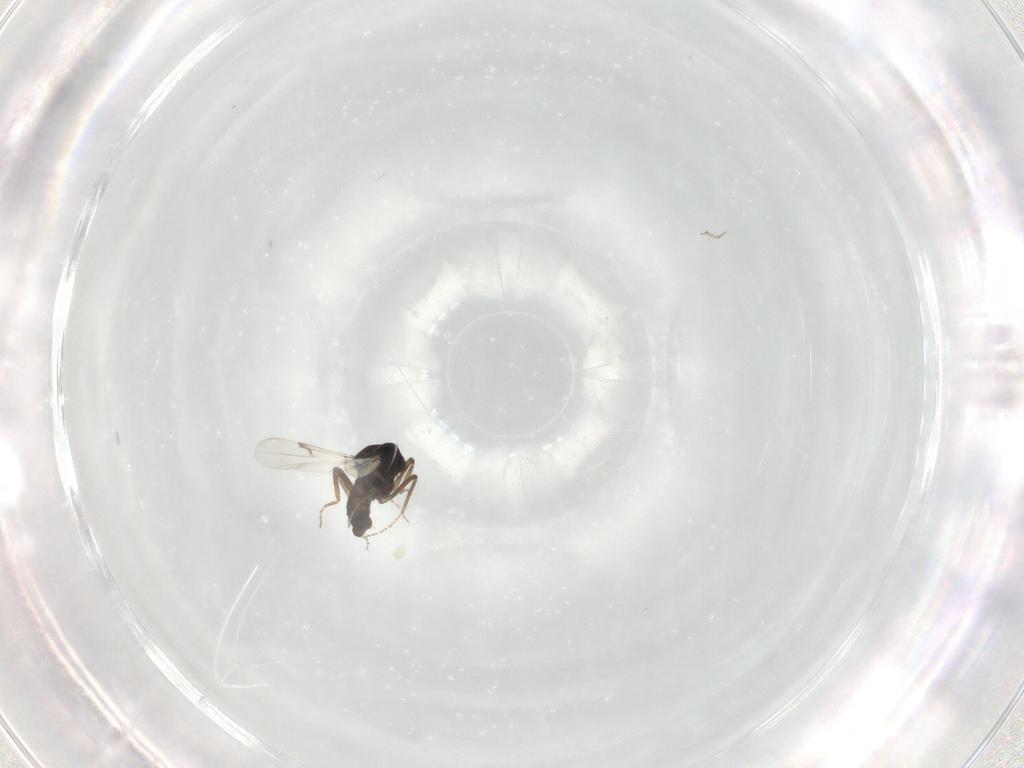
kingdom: Animalia
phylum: Arthropoda
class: Insecta
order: Diptera
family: Ceratopogonidae
